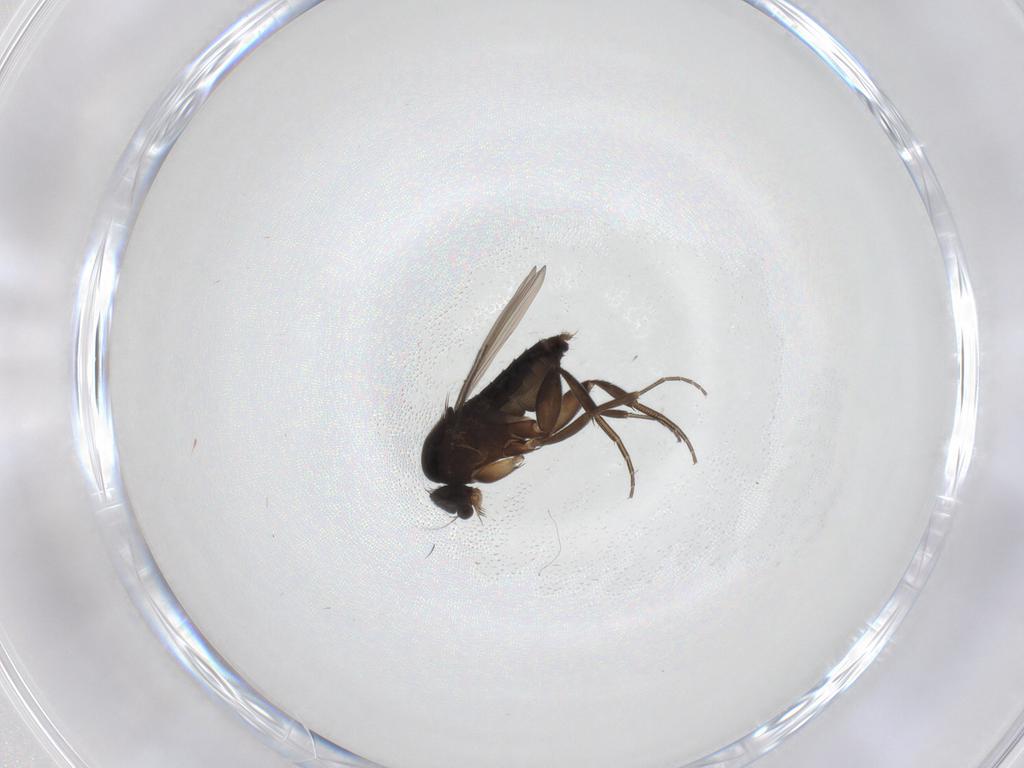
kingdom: Animalia
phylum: Arthropoda
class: Insecta
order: Diptera
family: Phoridae
